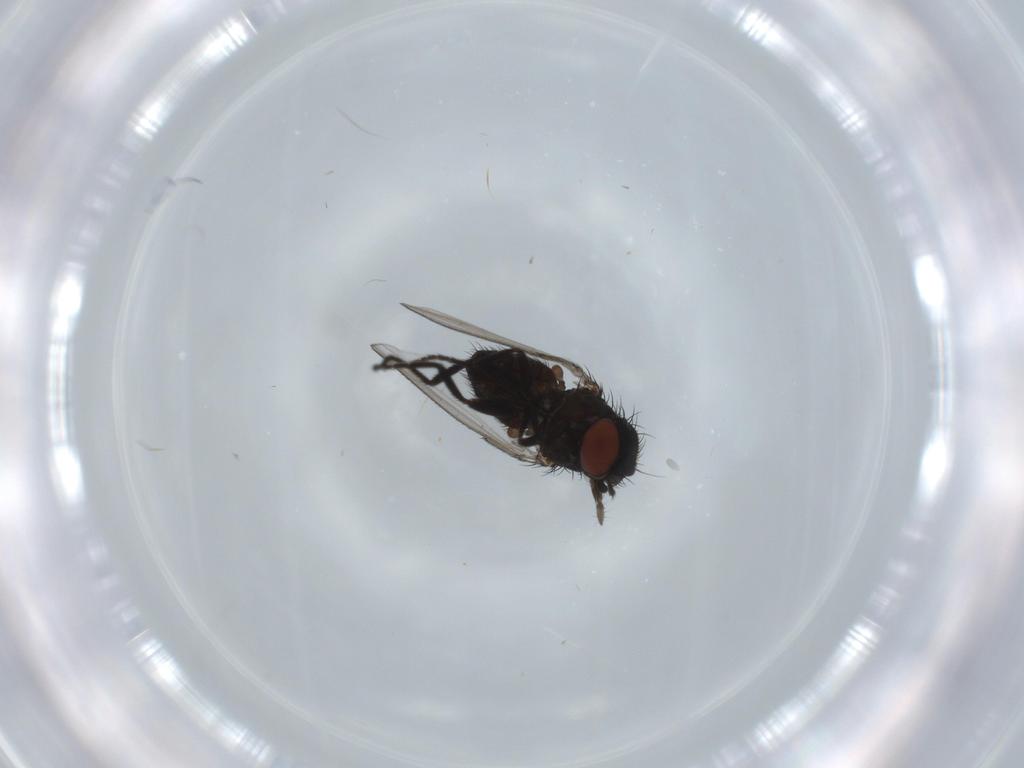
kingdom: Animalia
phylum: Arthropoda
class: Insecta
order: Diptera
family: Milichiidae
